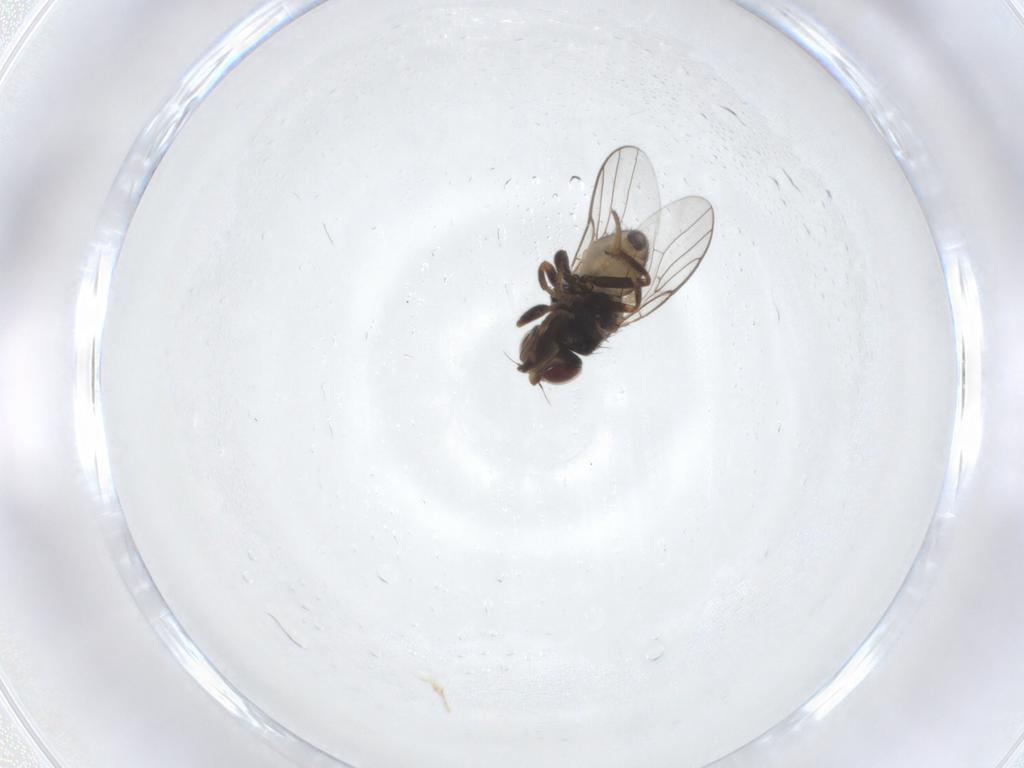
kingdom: Animalia
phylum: Arthropoda
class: Insecta
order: Diptera
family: Chloropidae
